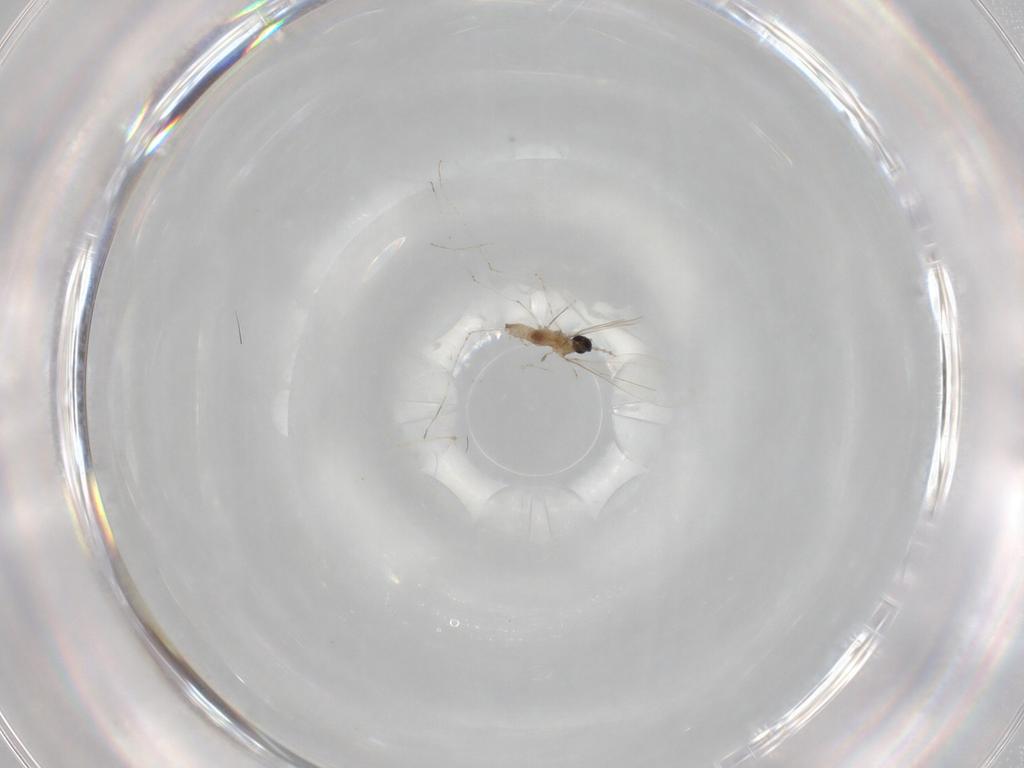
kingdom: Animalia
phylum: Arthropoda
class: Insecta
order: Diptera
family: Cecidomyiidae
